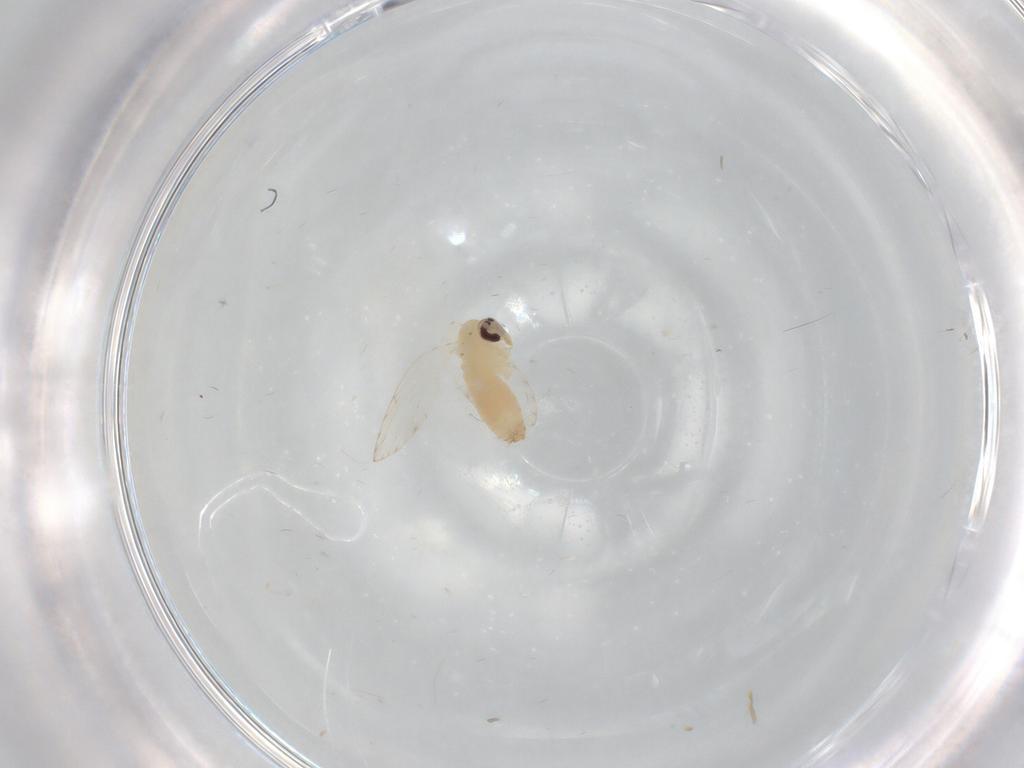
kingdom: Animalia
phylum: Arthropoda
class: Insecta
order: Diptera
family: Psychodidae
